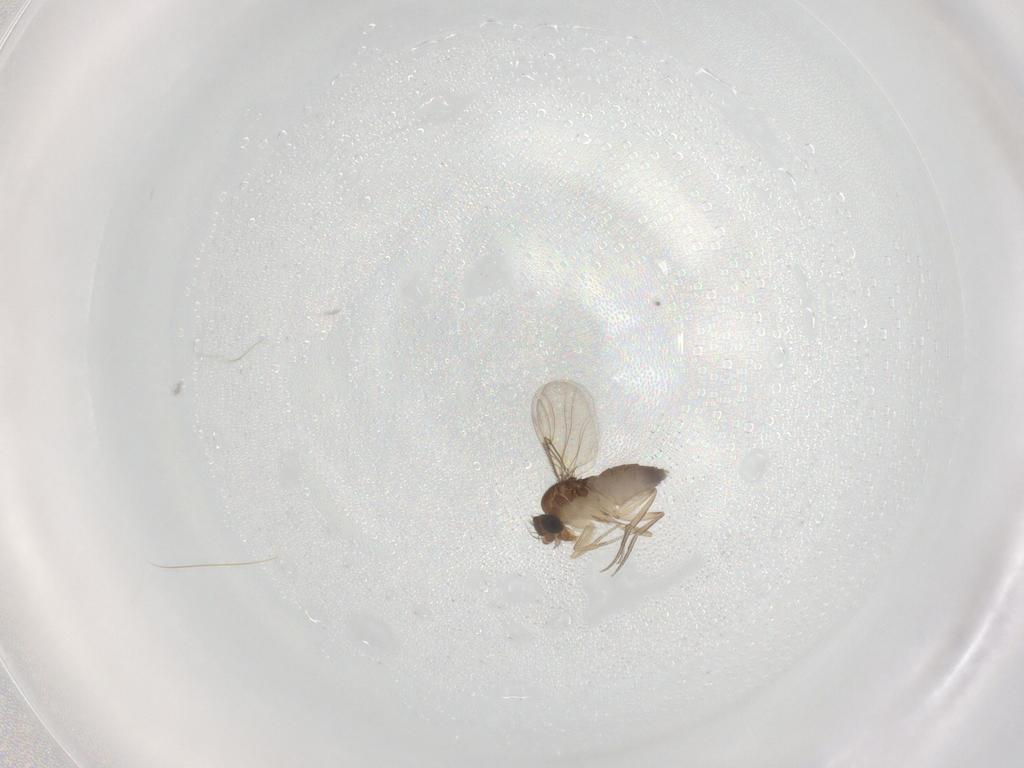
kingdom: Animalia
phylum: Arthropoda
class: Insecta
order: Diptera
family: Phoridae
